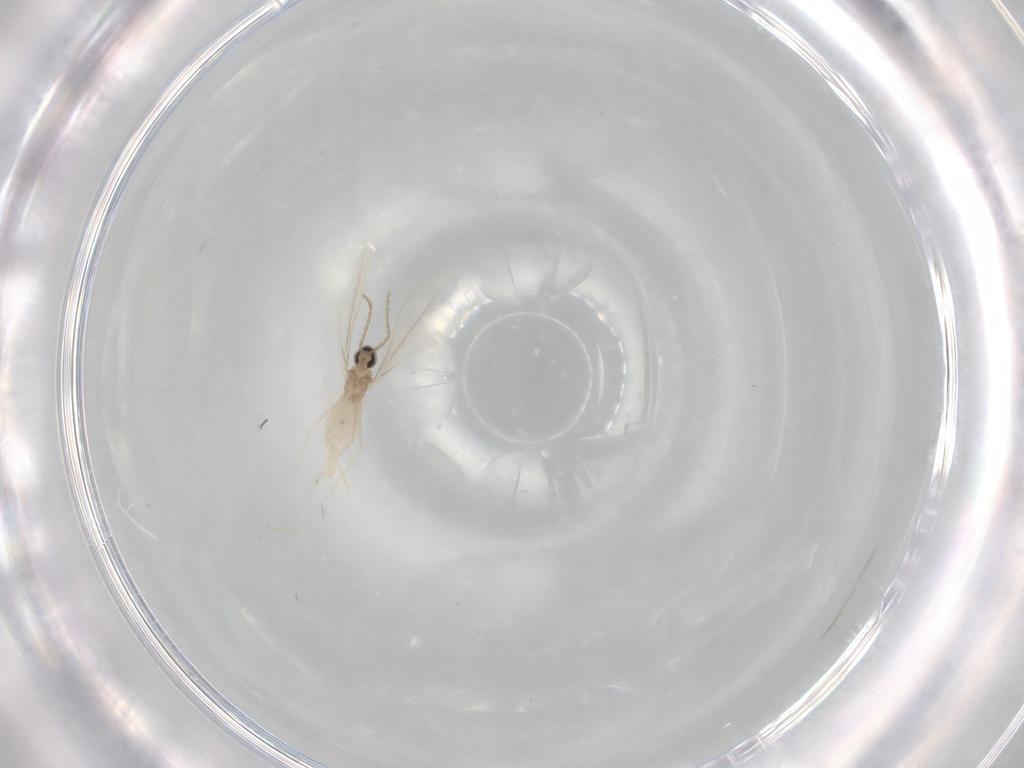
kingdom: Animalia
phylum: Arthropoda
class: Insecta
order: Diptera
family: Cecidomyiidae
